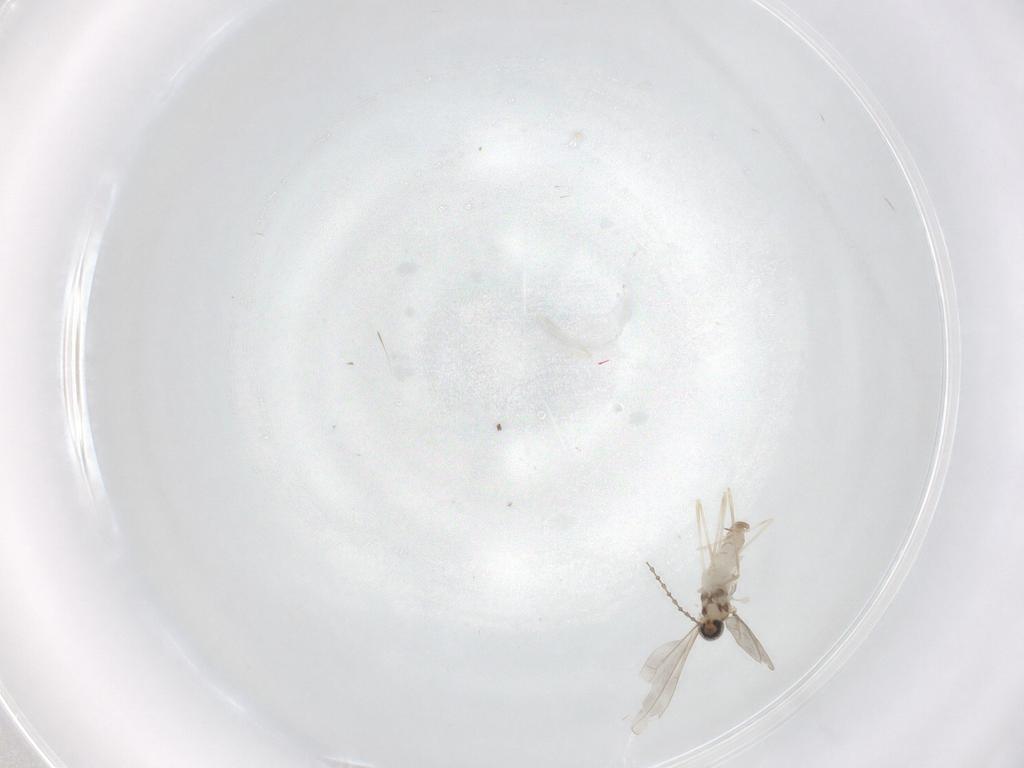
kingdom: Animalia
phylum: Arthropoda
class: Insecta
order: Diptera
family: Cecidomyiidae
